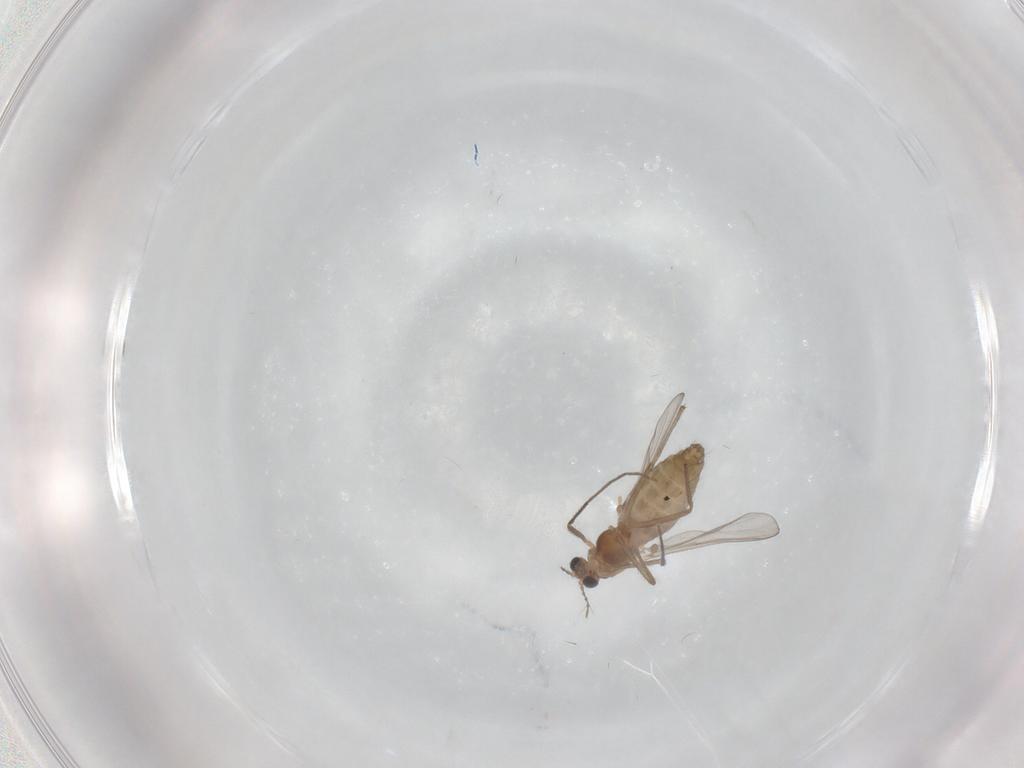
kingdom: Animalia
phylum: Arthropoda
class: Insecta
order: Diptera
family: Chironomidae
